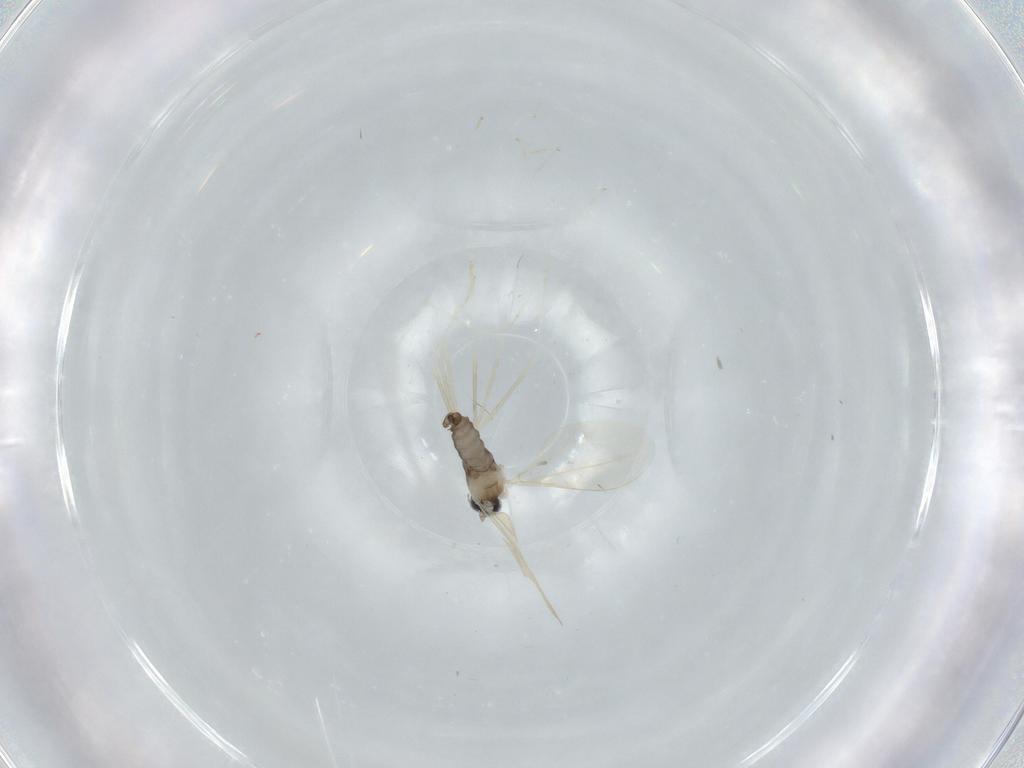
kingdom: Animalia
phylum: Arthropoda
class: Insecta
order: Diptera
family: Cecidomyiidae
